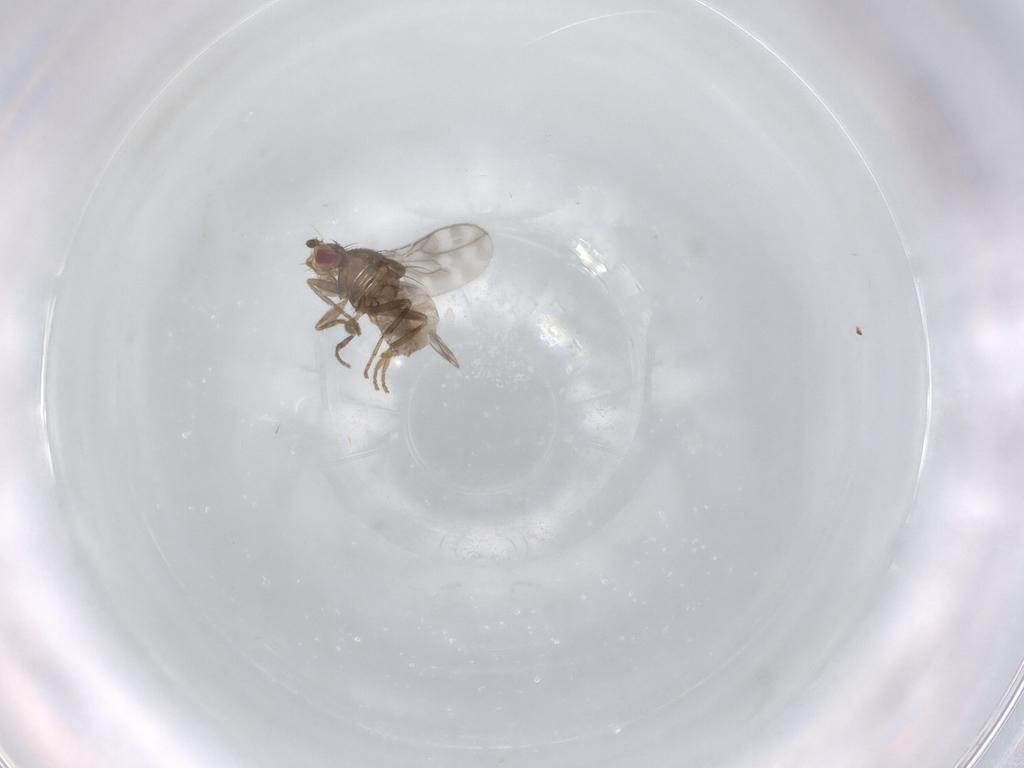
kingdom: Animalia
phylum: Arthropoda
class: Insecta
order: Diptera
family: Sphaeroceridae
